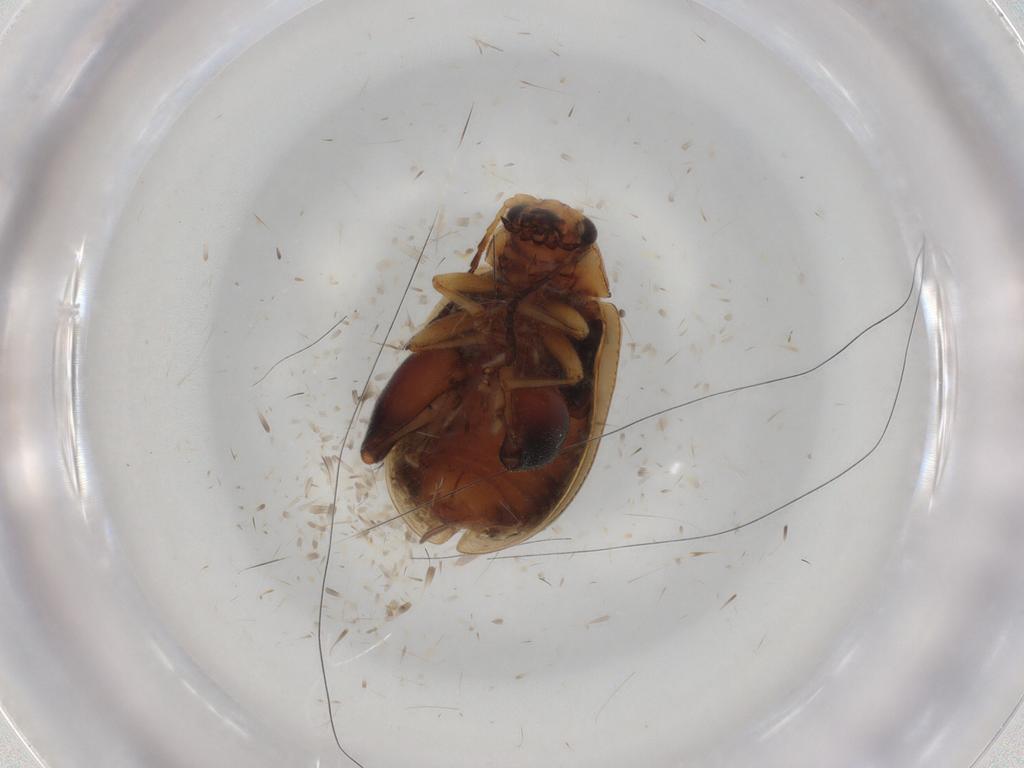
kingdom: Animalia
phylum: Arthropoda
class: Insecta
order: Coleoptera
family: Chrysomelidae
